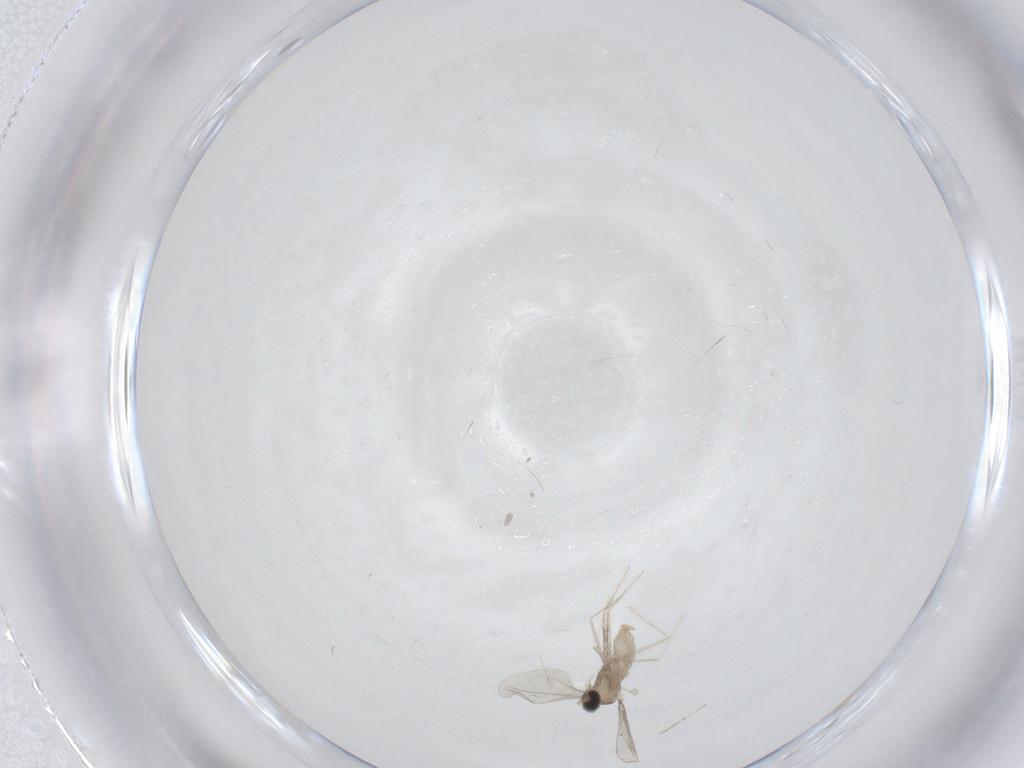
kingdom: Animalia
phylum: Arthropoda
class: Insecta
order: Diptera
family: Cecidomyiidae
